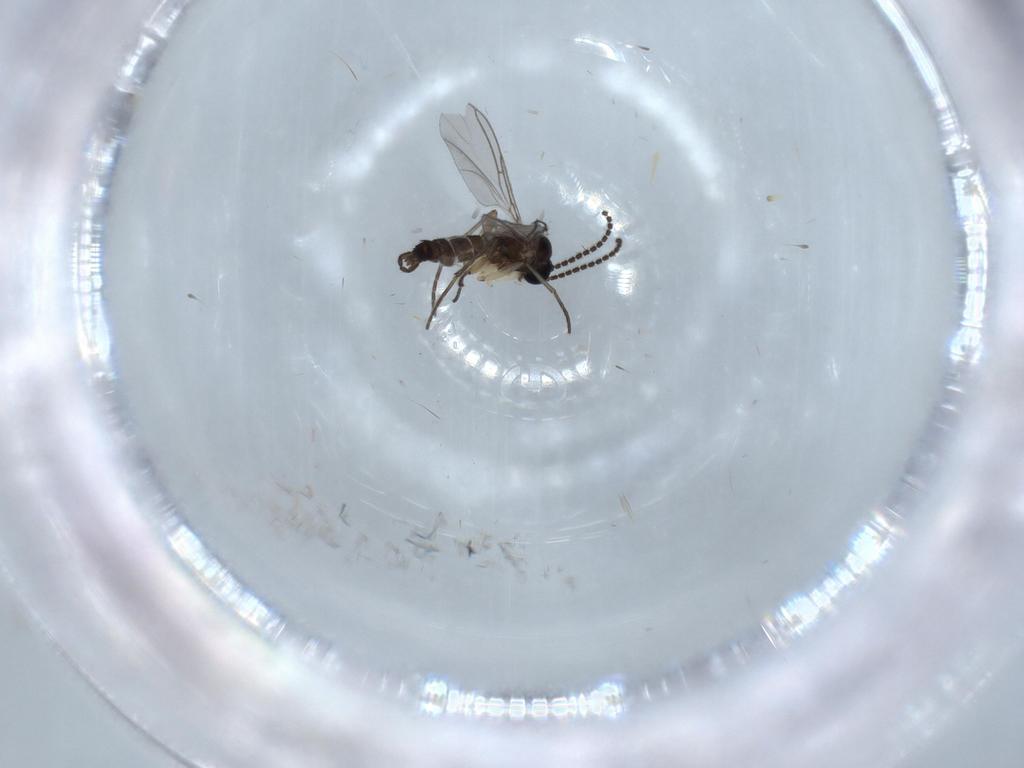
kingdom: Animalia
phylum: Arthropoda
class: Insecta
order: Diptera
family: Sciaridae
